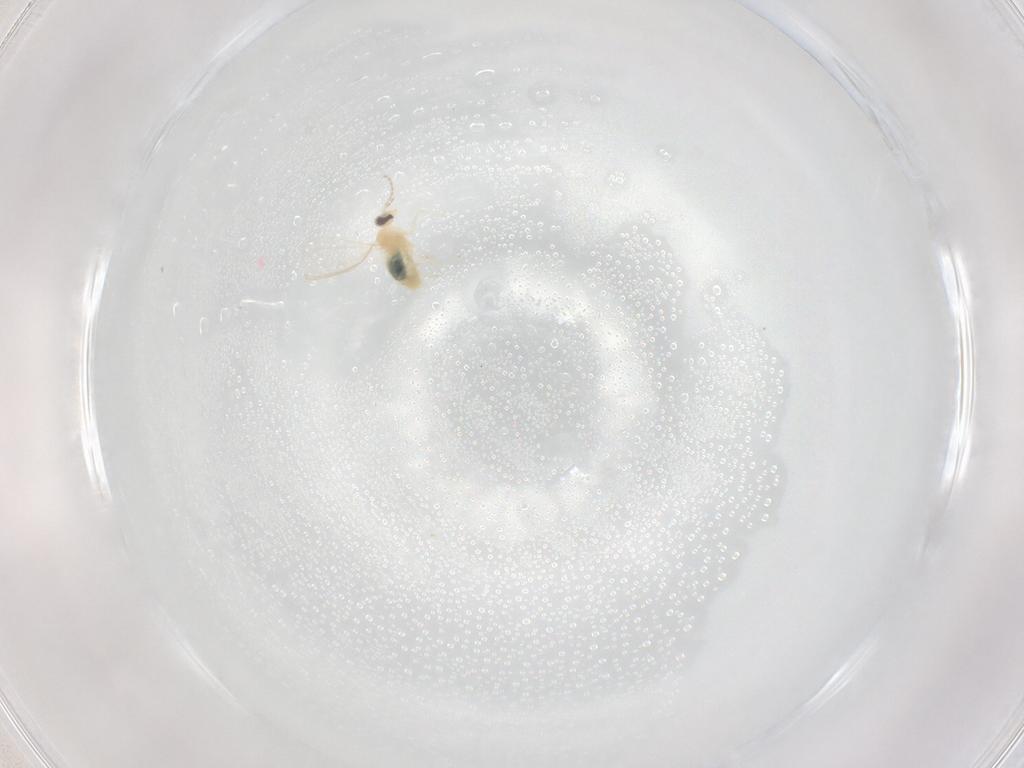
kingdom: Animalia
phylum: Arthropoda
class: Insecta
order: Diptera
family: Cecidomyiidae
